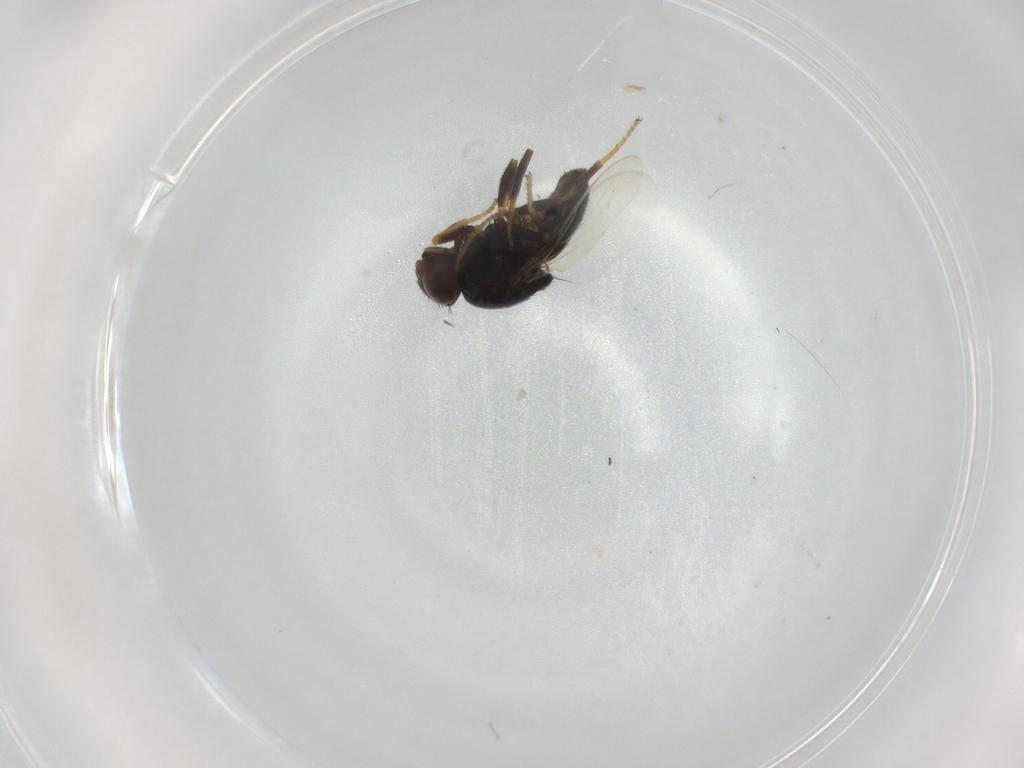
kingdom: Animalia
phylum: Arthropoda
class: Insecta
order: Diptera
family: Chloropidae
